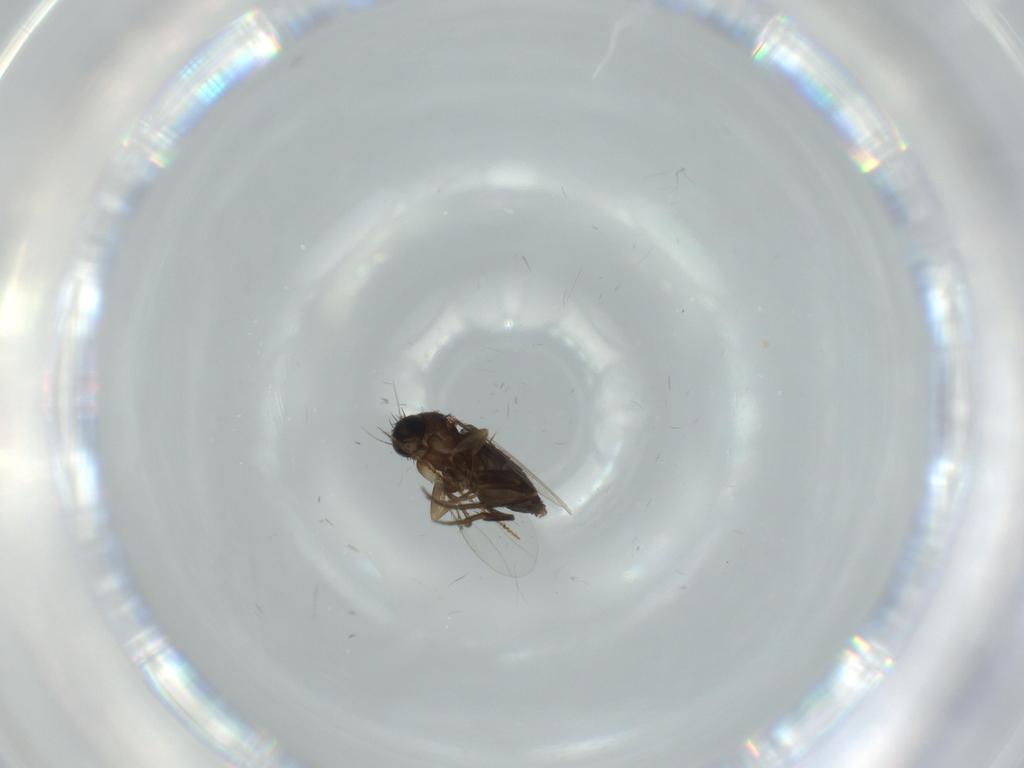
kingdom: Animalia
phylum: Arthropoda
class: Insecta
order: Diptera
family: Phoridae
